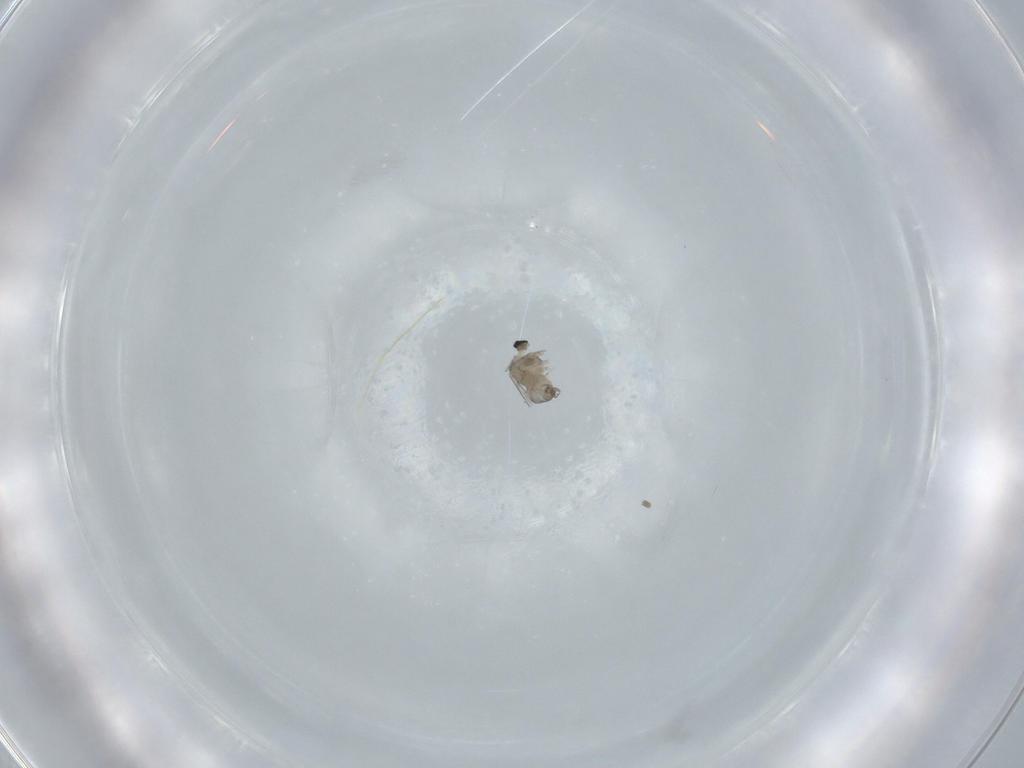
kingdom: Animalia
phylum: Arthropoda
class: Insecta
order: Diptera
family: Cecidomyiidae
